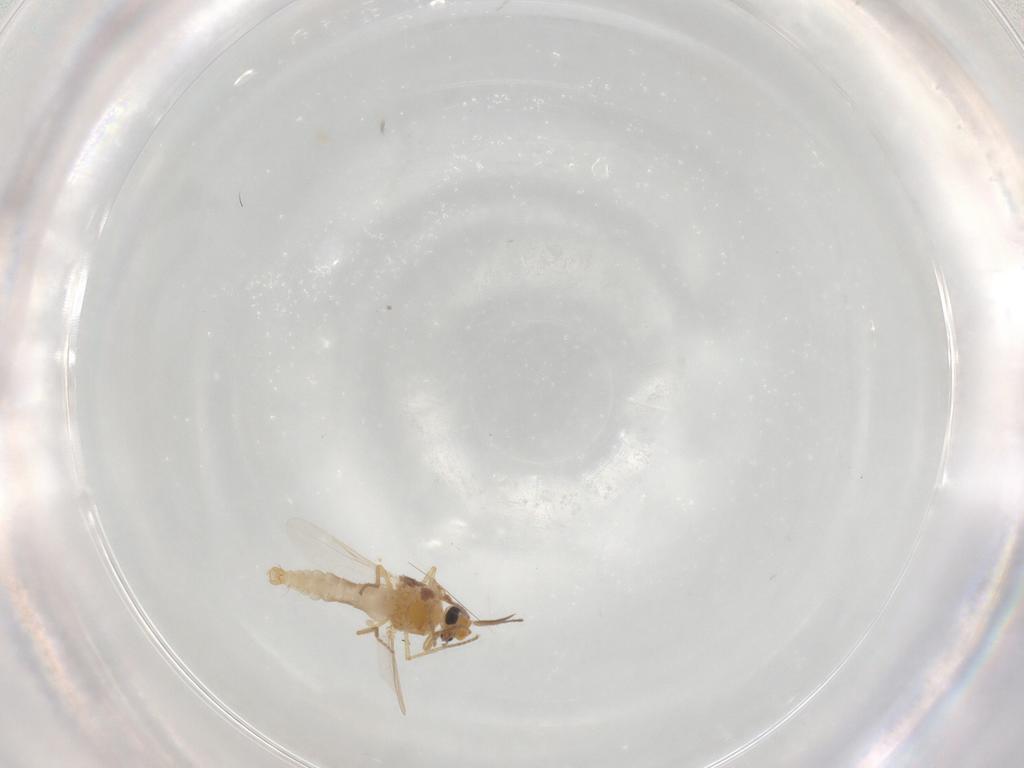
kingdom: Animalia
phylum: Arthropoda
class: Insecta
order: Diptera
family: Ceratopogonidae
